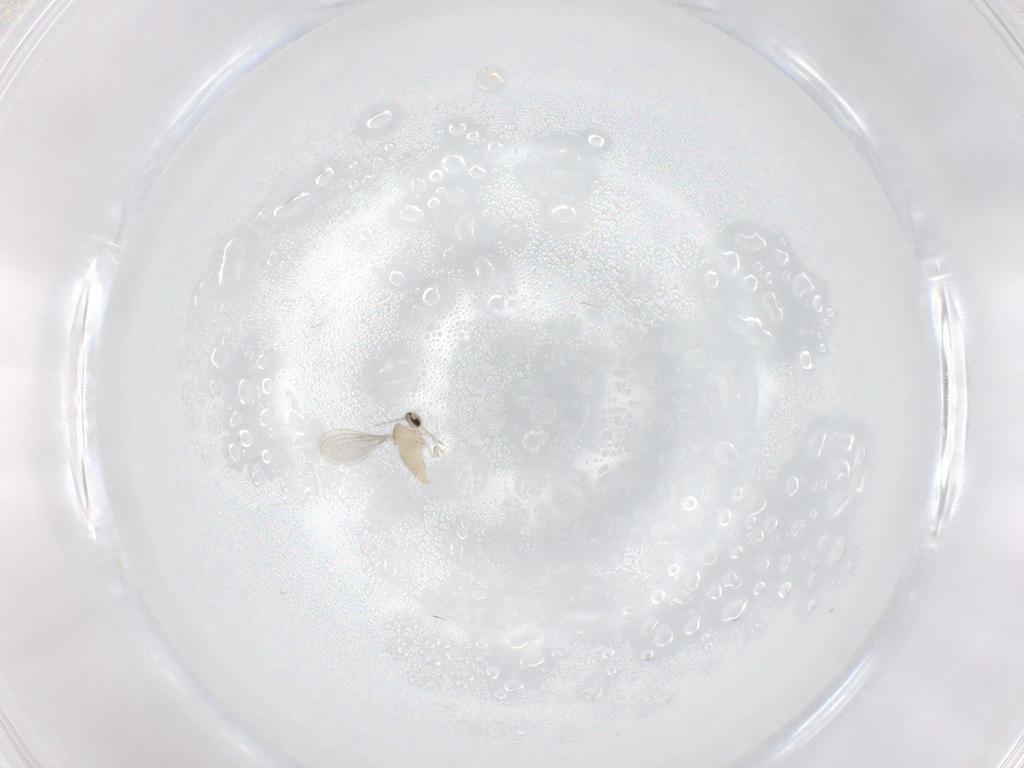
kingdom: Animalia
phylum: Arthropoda
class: Insecta
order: Diptera
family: Cecidomyiidae
